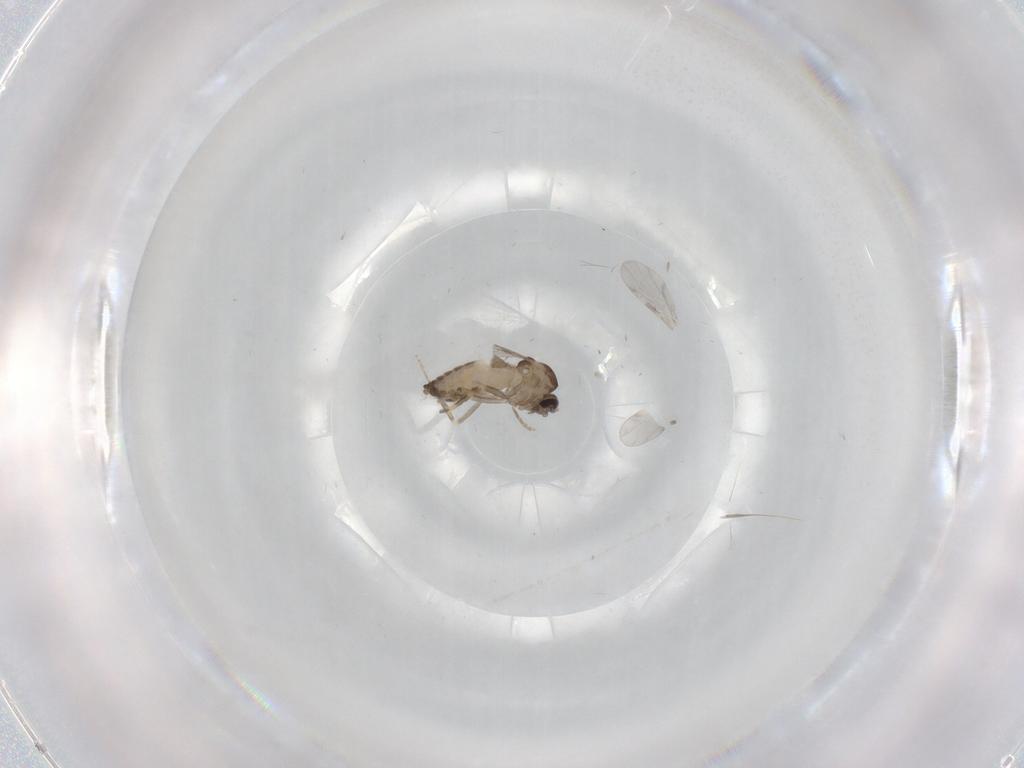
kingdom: Animalia
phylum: Arthropoda
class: Insecta
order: Diptera
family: Ceratopogonidae
